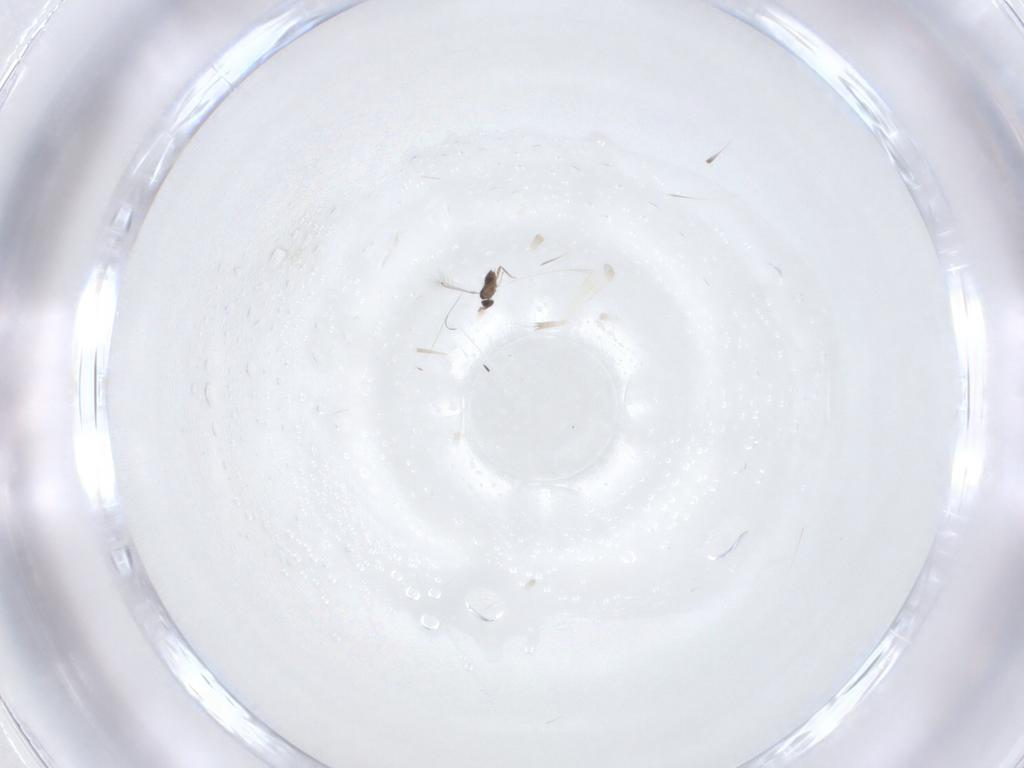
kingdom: Animalia
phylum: Arthropoda
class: Insecta
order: Hymenoptera
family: Mymaridae
